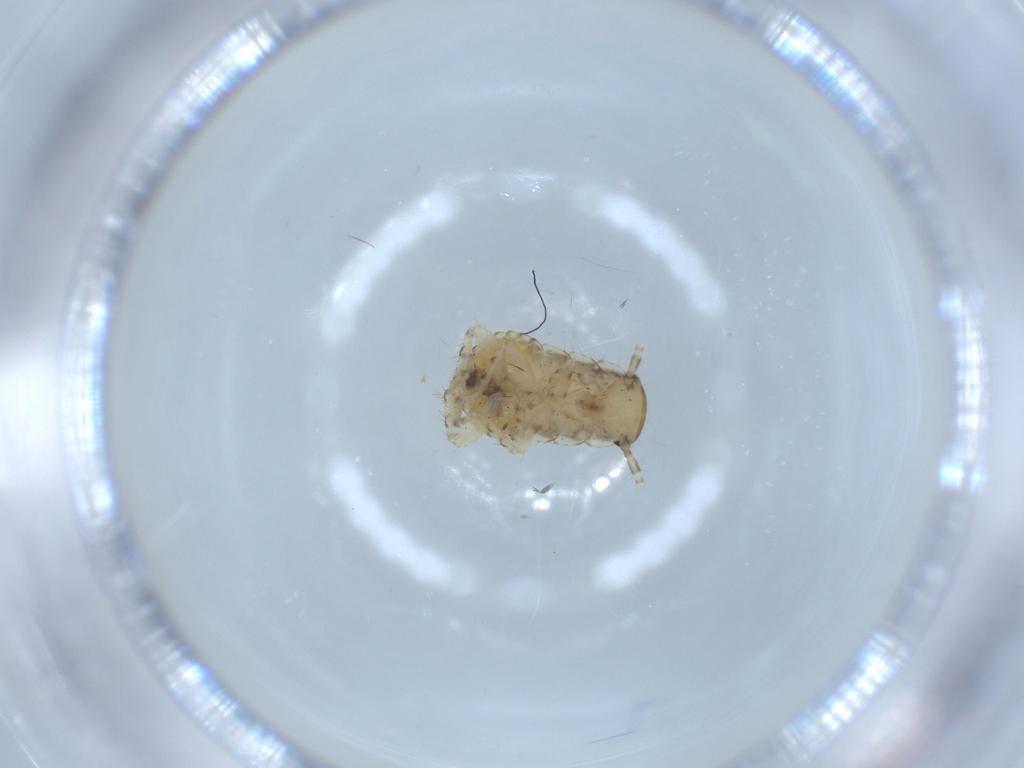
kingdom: Animalia
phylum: Arthropoda
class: Insecta
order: Blattodea
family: Ectobiidae
